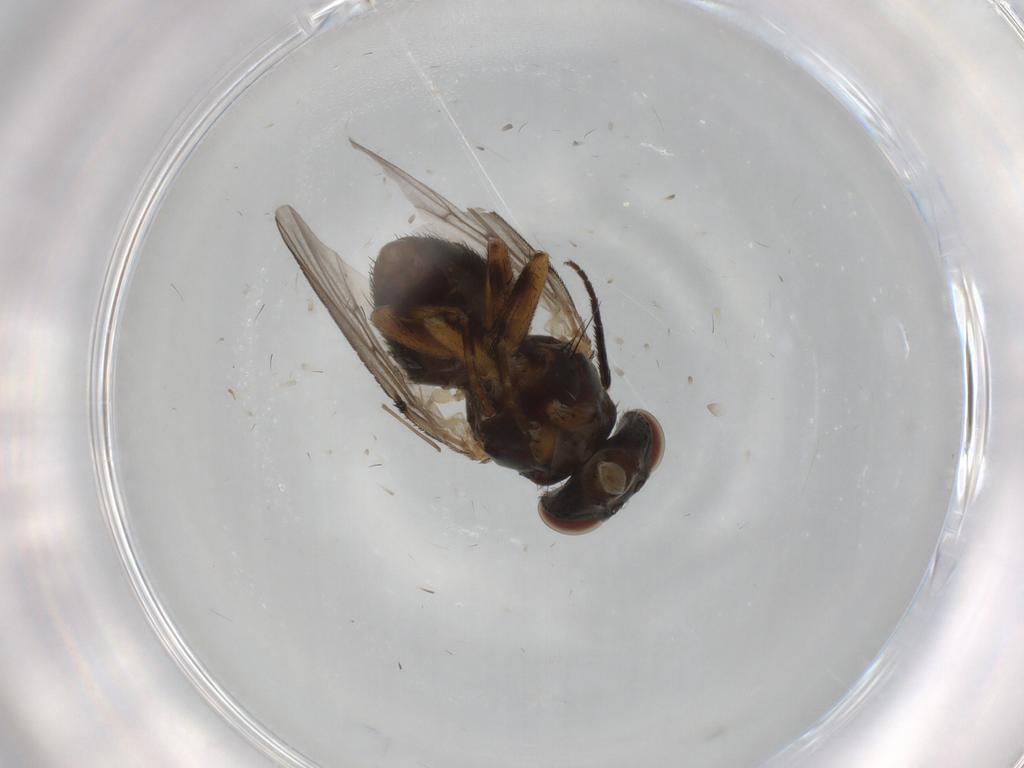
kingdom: Animalia
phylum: Arthropoda
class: Insecta
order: Diptera
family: Odiniidae
